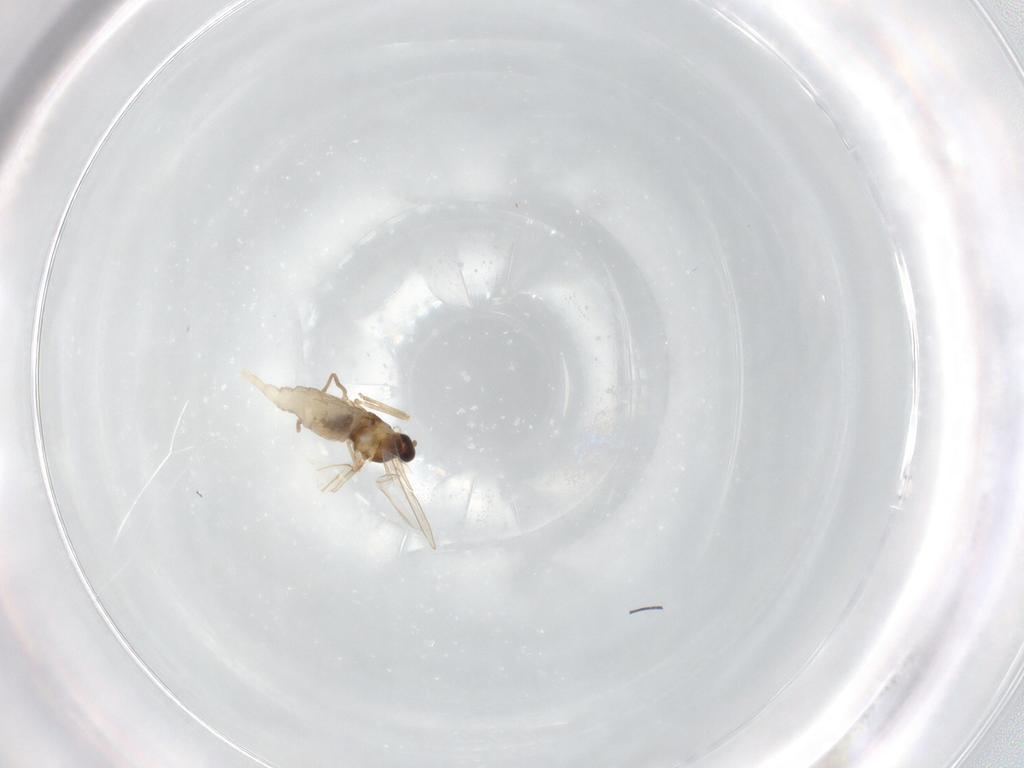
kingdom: Animalia
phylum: Arthropoda
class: Insecta
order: Diptera
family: Cecidomyiidae
